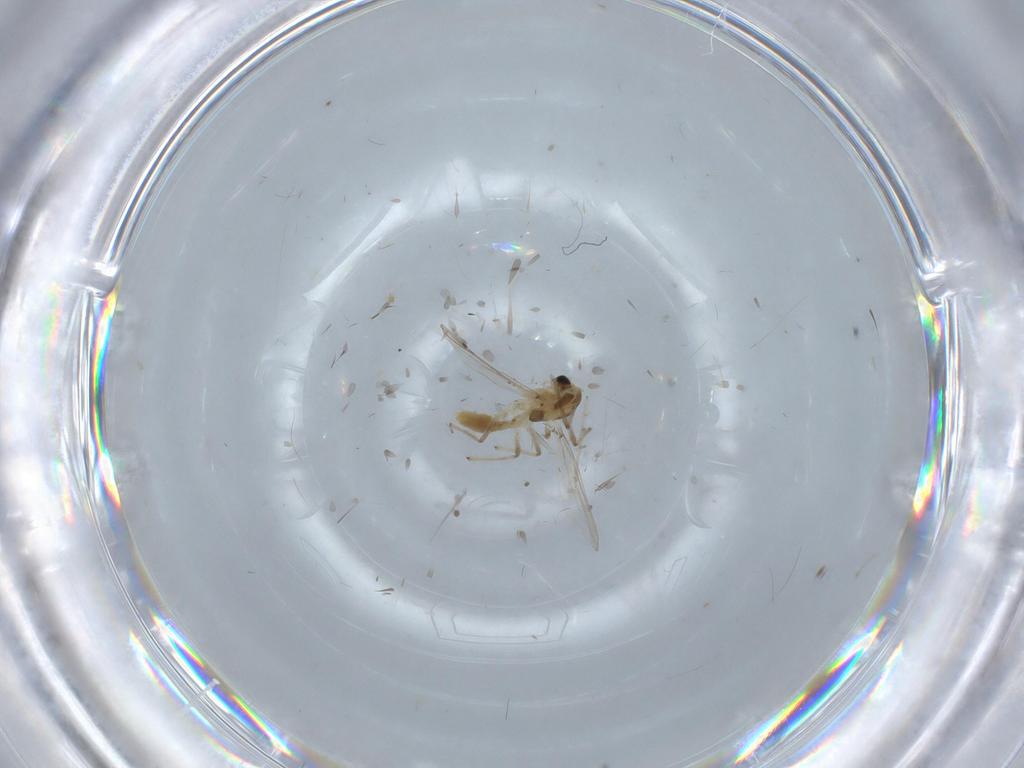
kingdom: Animalia
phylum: Arthropoda
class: Insecta
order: Diptera
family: Chironomidae
